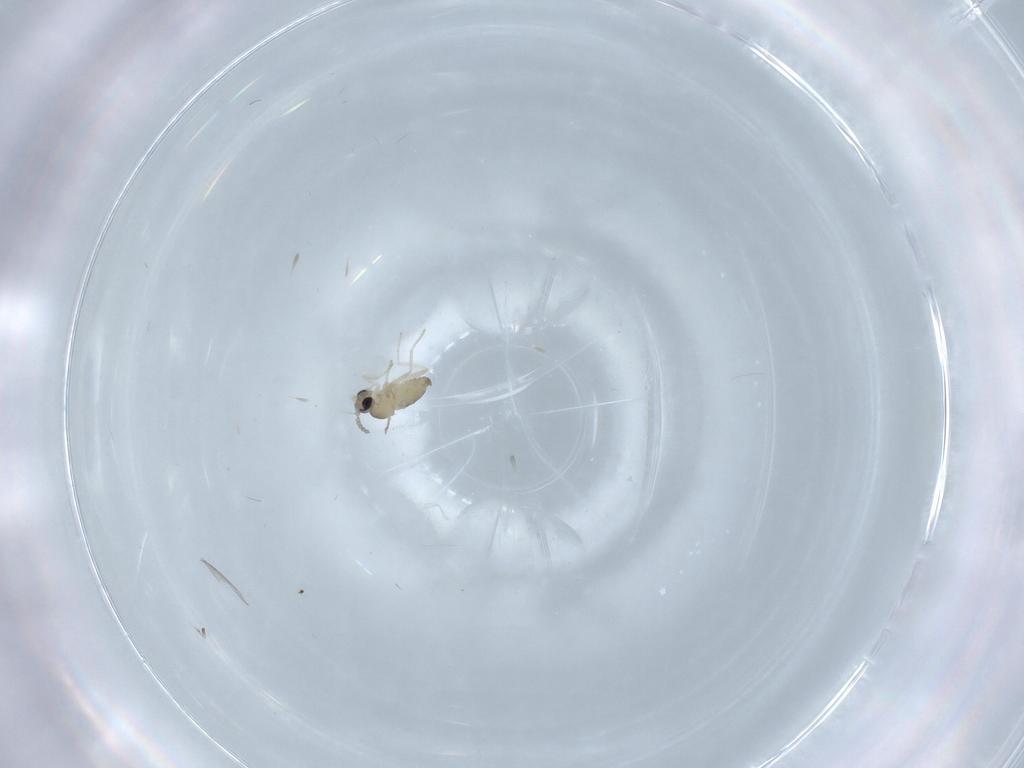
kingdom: Animalia
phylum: Arthropoda
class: Insecta
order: Diptera
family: Cecidomyiidae
